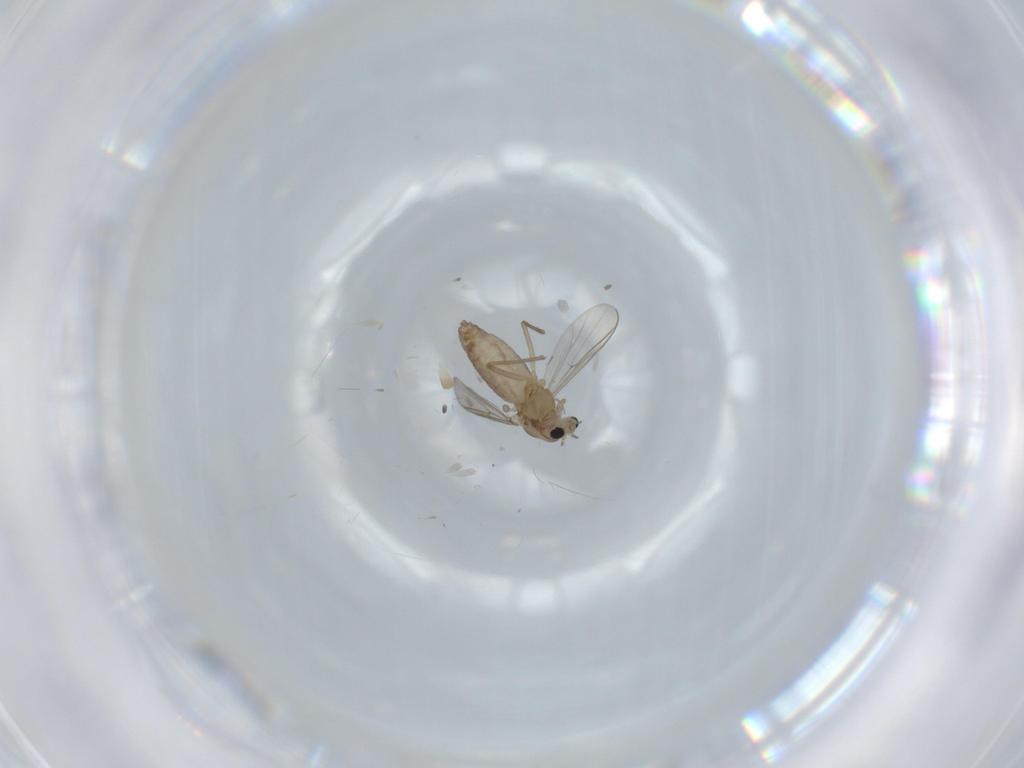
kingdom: Animalia
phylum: Arthropoda
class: Insecta
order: Diptera
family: Chironomidae
